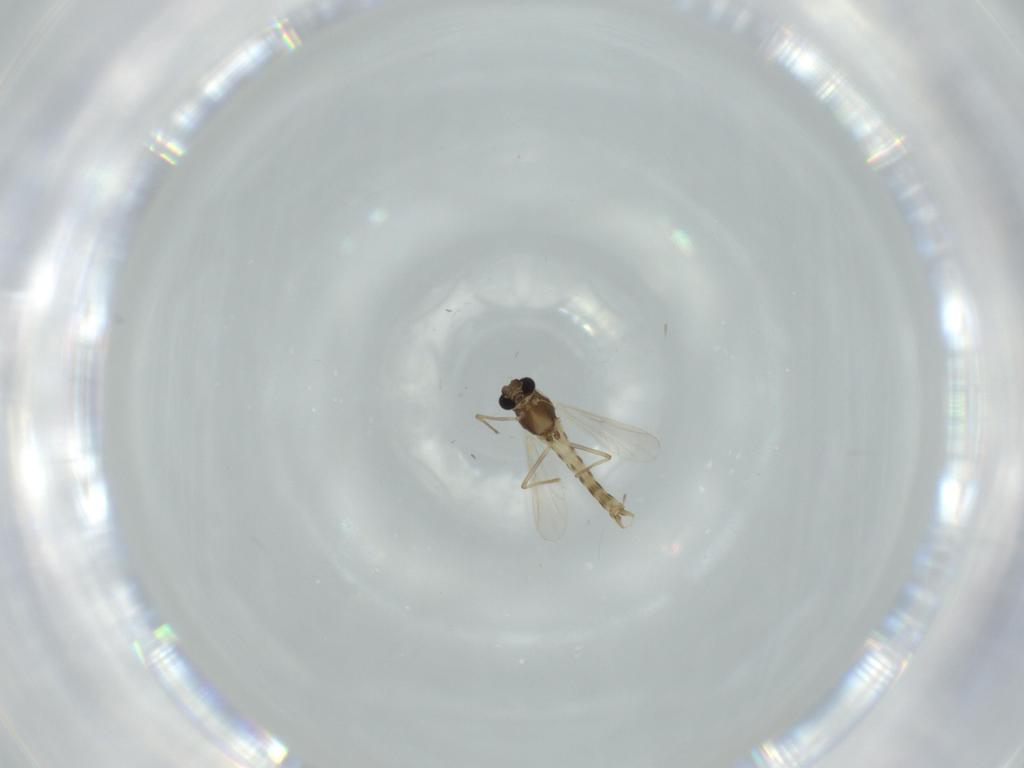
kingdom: Animalia
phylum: Arthropoda
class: Insecta
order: Diptera
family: Chironomidae
